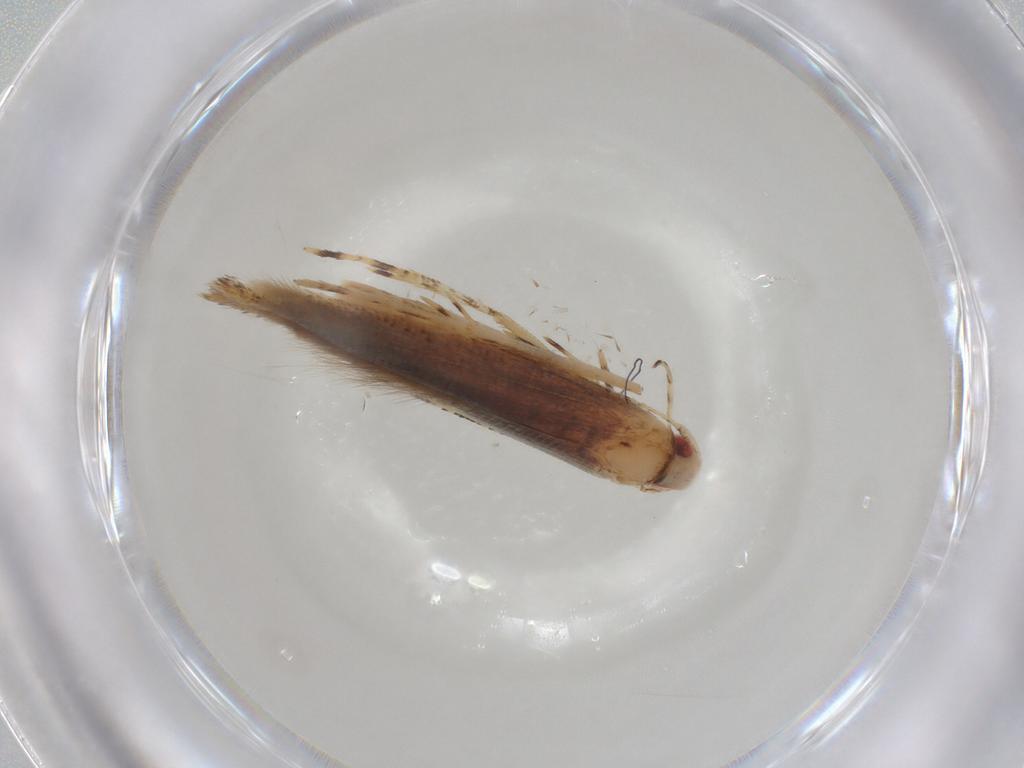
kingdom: Animalia
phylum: Arthropoda
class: Insecta
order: Lepidoptera
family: Cosmopterigidae
